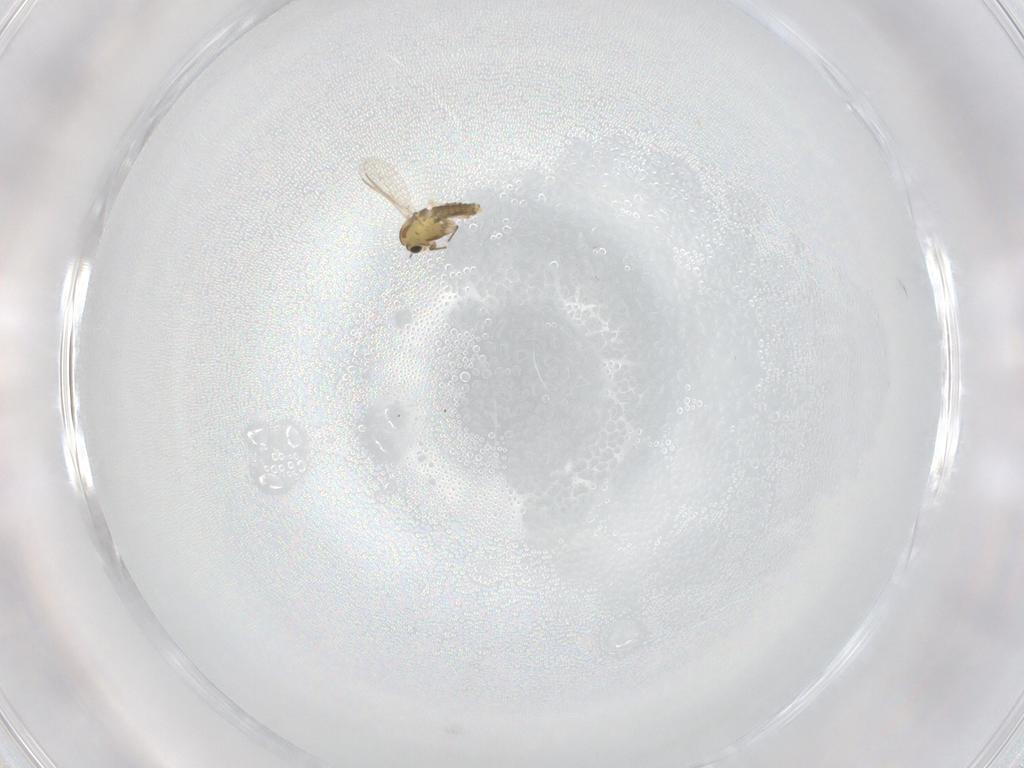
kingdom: Animalia
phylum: Arthropoda
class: Insecta
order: Diptera
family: Chironomidae
